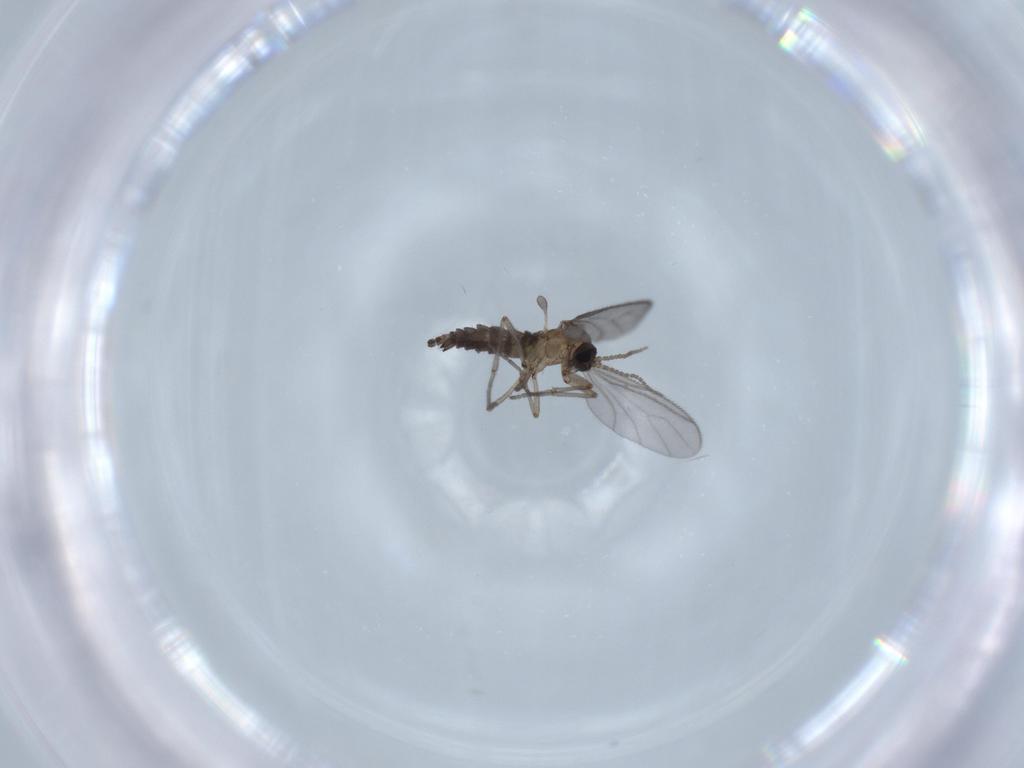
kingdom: Animalia
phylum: Arthropoda
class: Insecta
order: Diptera
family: Sciaridae
